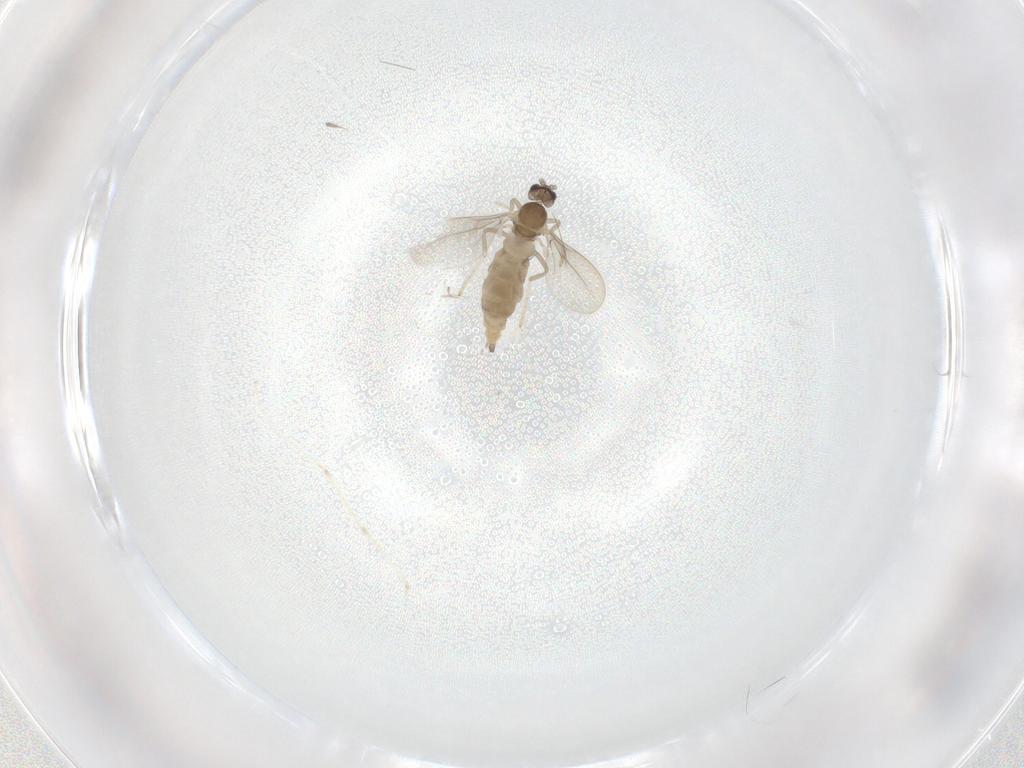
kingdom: Animalia
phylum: Arthropoda
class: Insecta
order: Diptera
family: Cecidomyiidae
